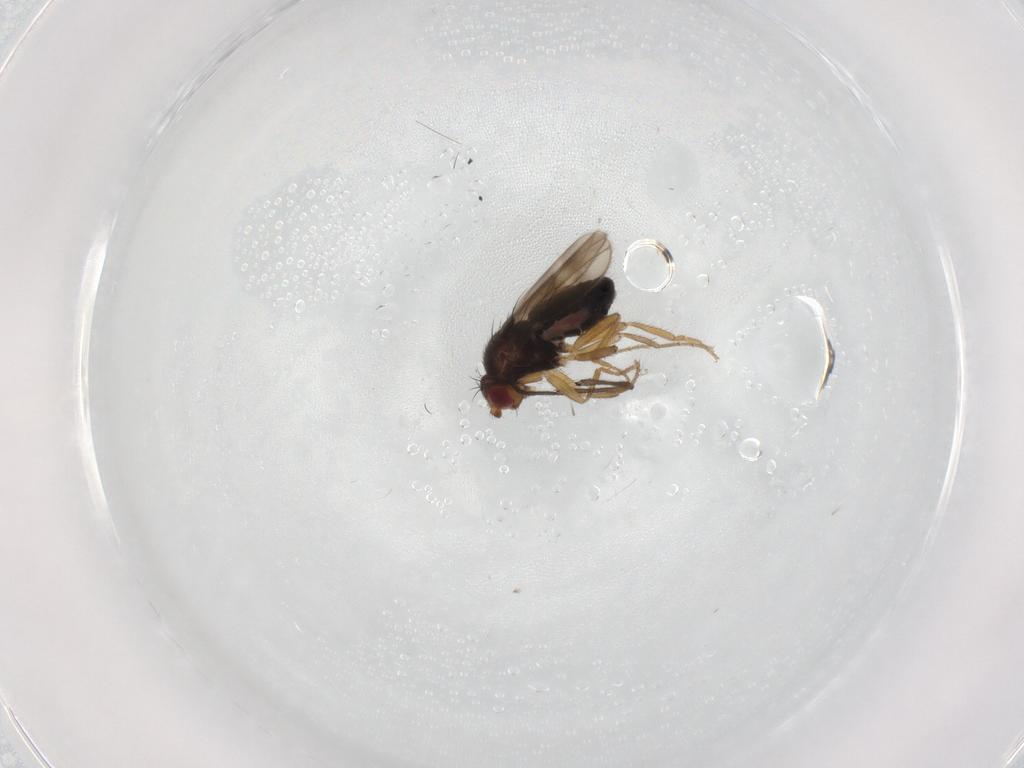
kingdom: Animalia
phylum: Arthropoda
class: Insecta
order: Diptera
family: Sphaeroceridae
